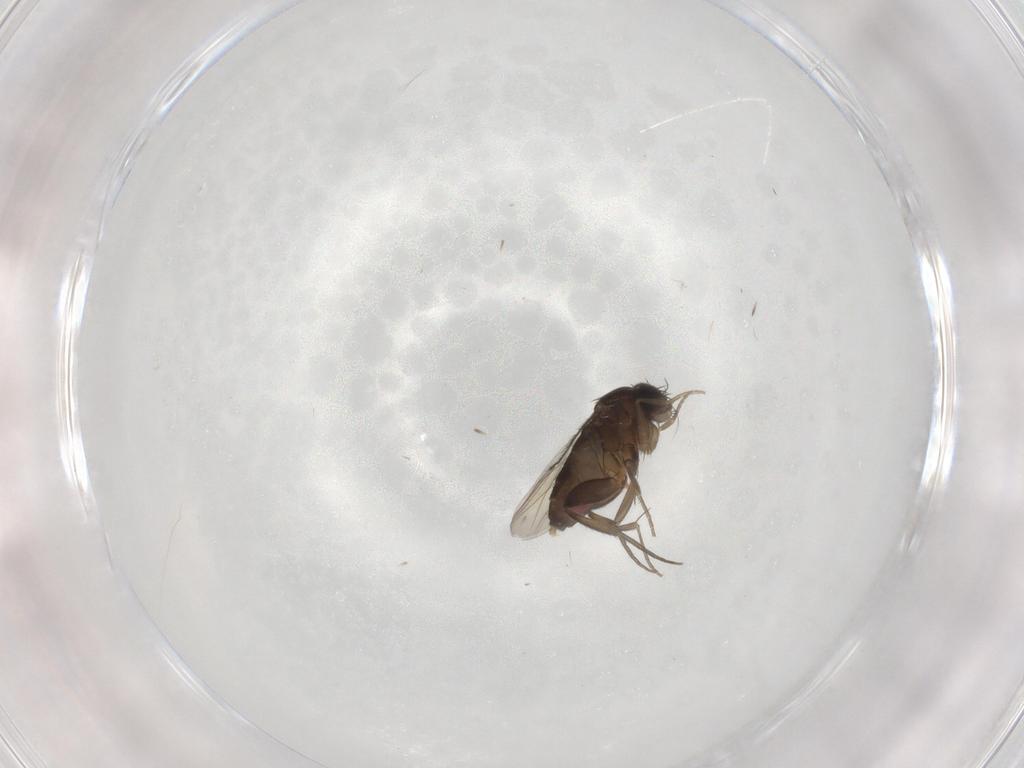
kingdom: Animalia
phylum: Arthropoda
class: Insecta
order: Diptera
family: Phoridae
